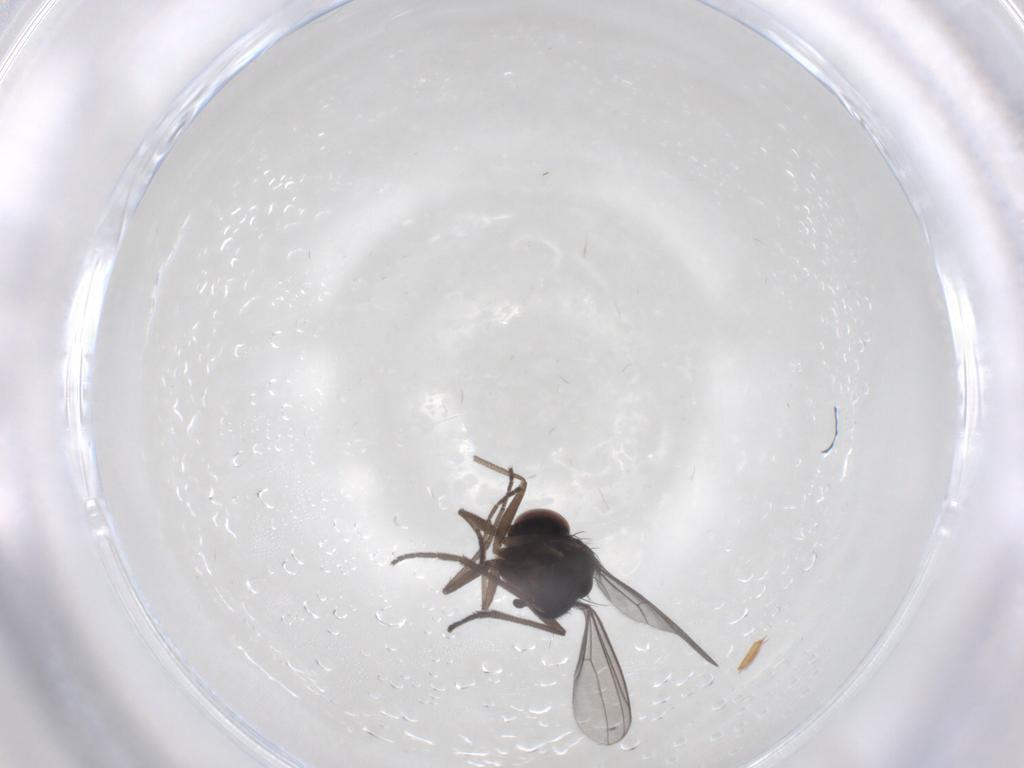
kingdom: Animalia
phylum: Arthropoda
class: Insecta
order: Diptera
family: Dolichopodidae
